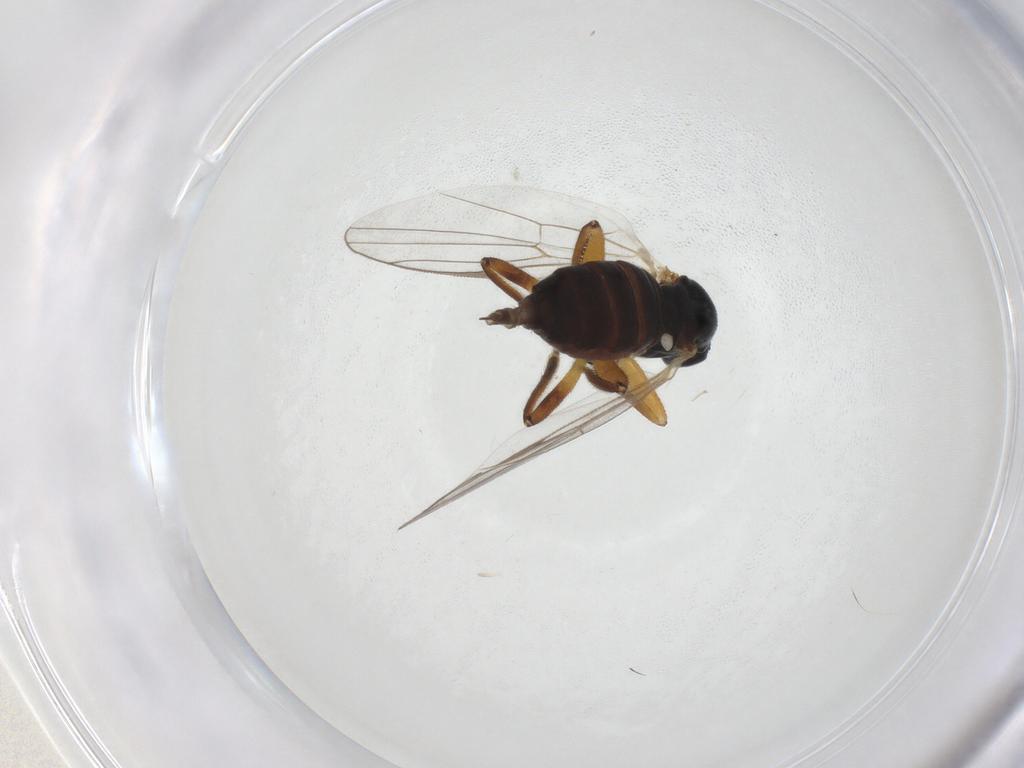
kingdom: Animalia
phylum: Arthropoda
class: Insecta
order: Diptera
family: Hybotidae
